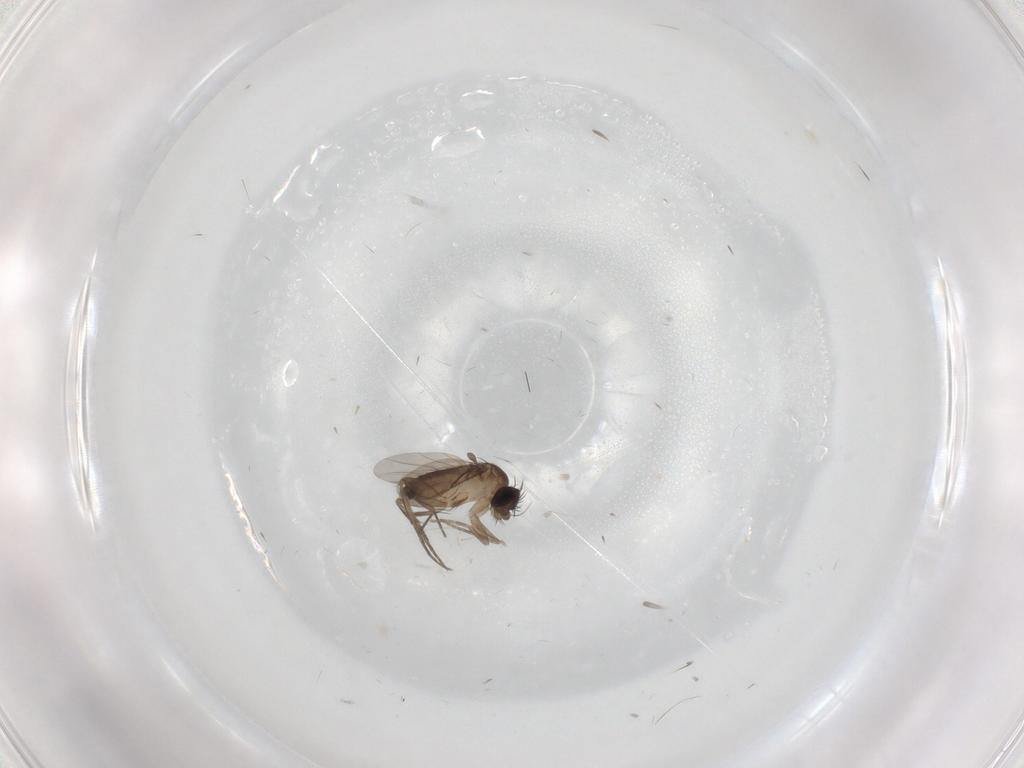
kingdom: Animalia
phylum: Arthropoda
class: Insecta
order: Diptera
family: Phoridae
